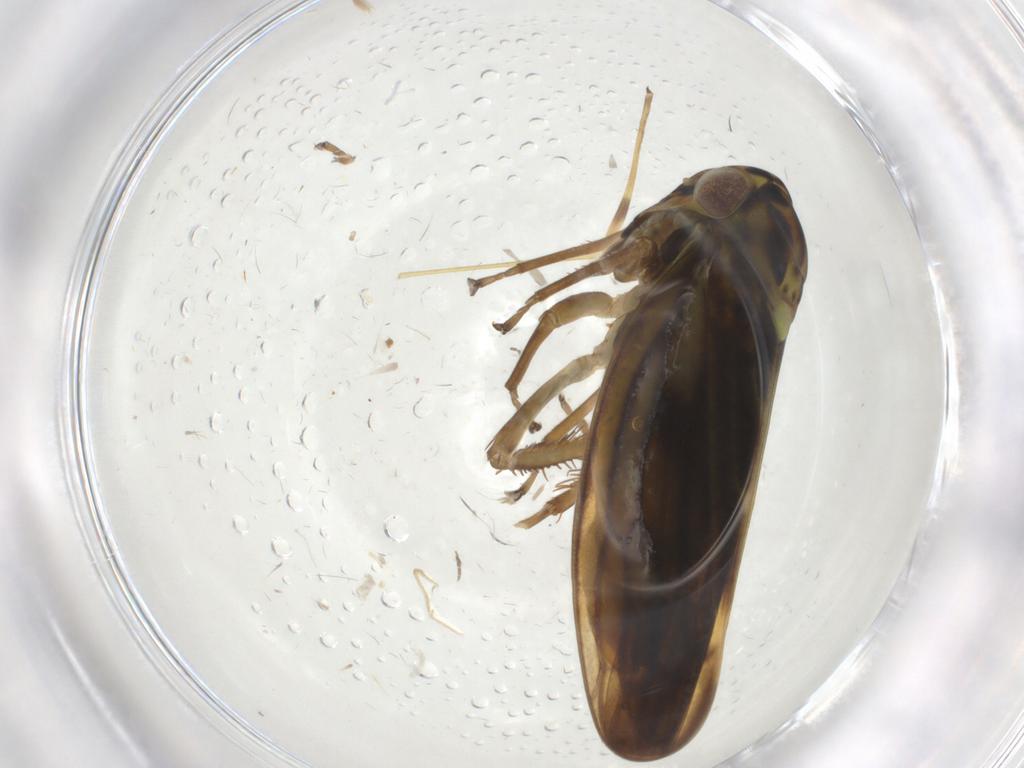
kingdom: Animalia
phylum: Arthropoda
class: Insecta
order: Hemiptera
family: Cicadellidae
